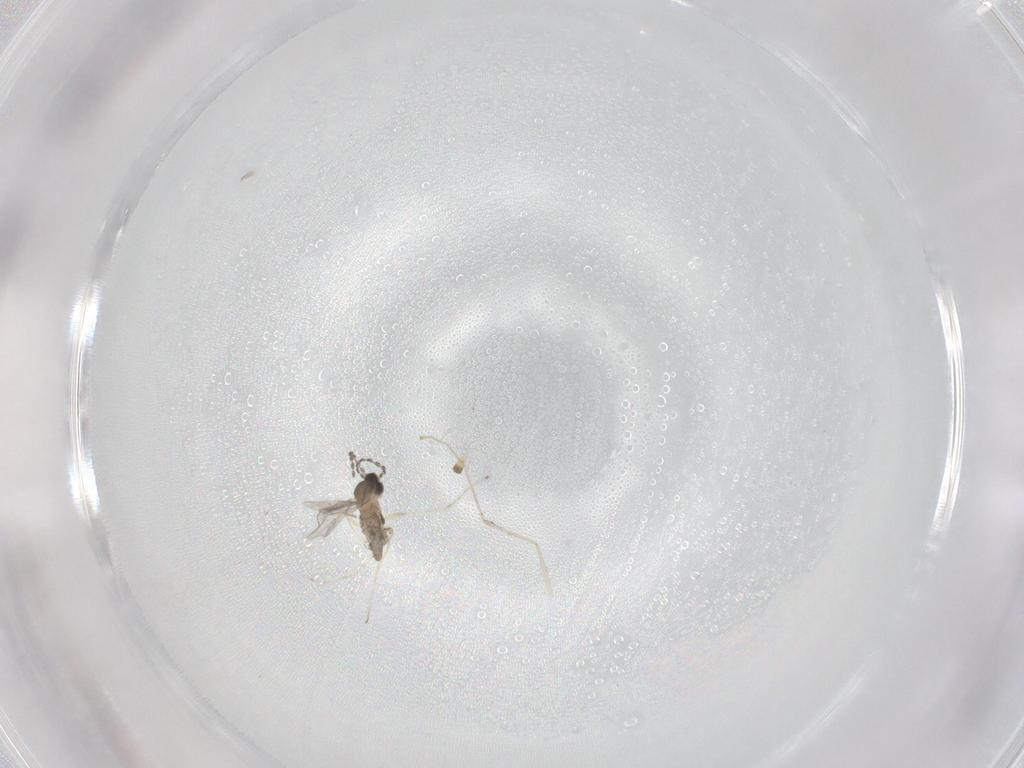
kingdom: Animalia
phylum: Arthropoda
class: Insecta
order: Diptera
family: Cecidomyiidae
